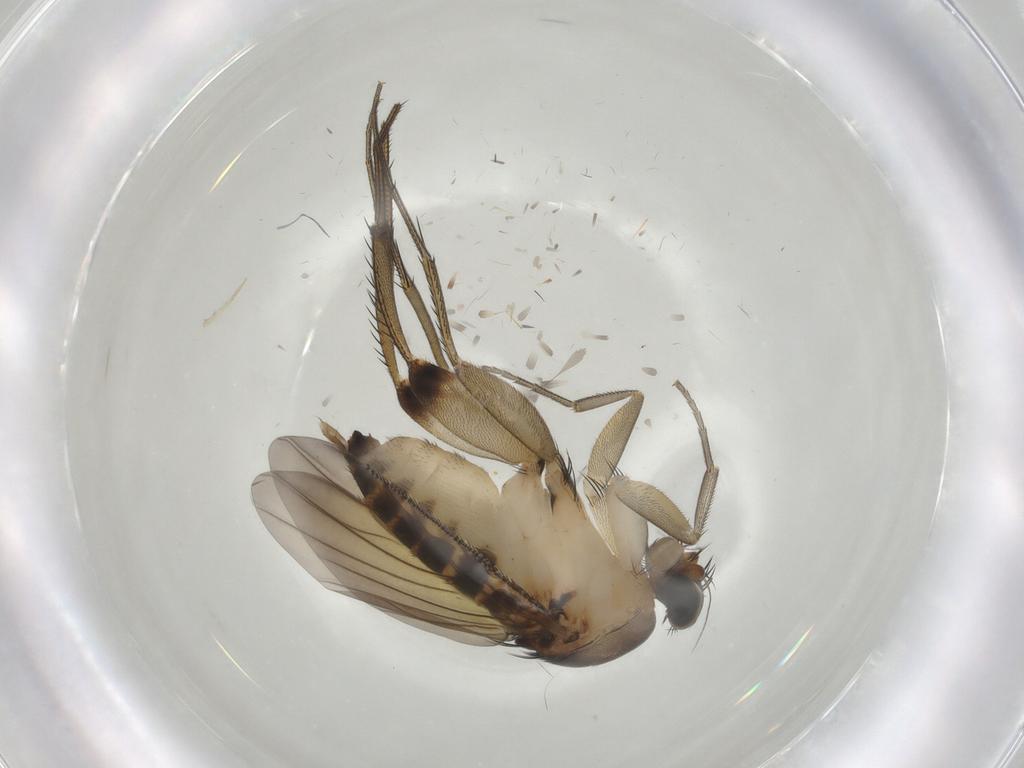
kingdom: Animalia
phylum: Arthropoda
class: Insecta
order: Diptera
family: Phoridae
